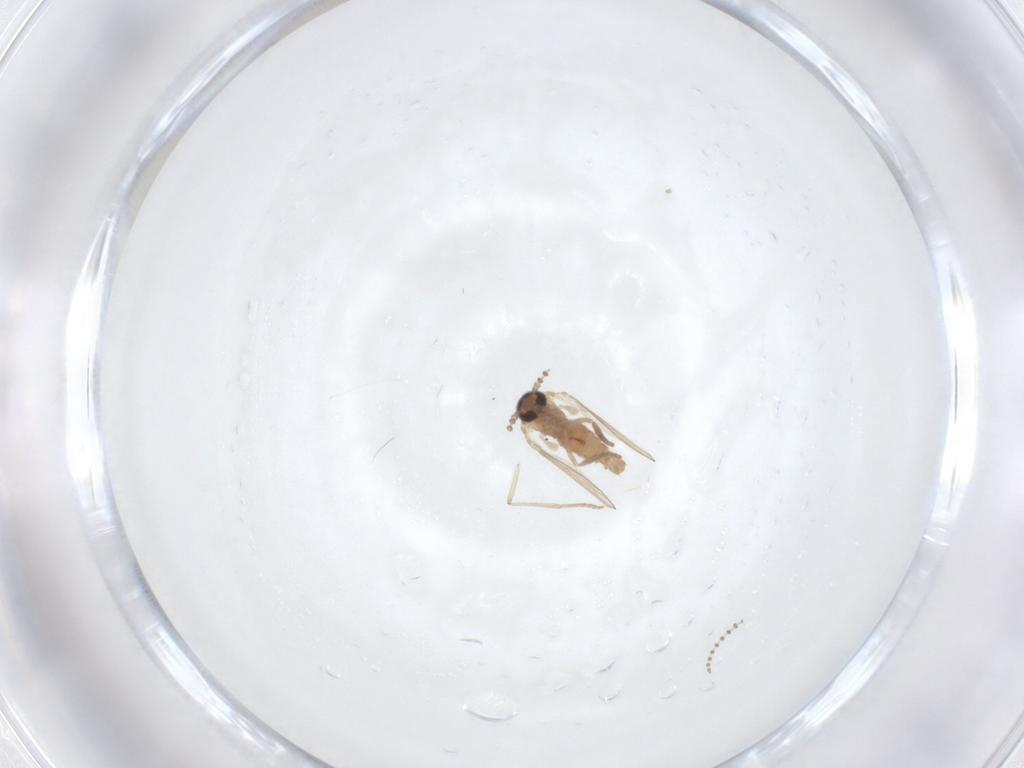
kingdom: Animalia
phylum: Arthropoda
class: Insecta
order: Diptera
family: Psychodidae
